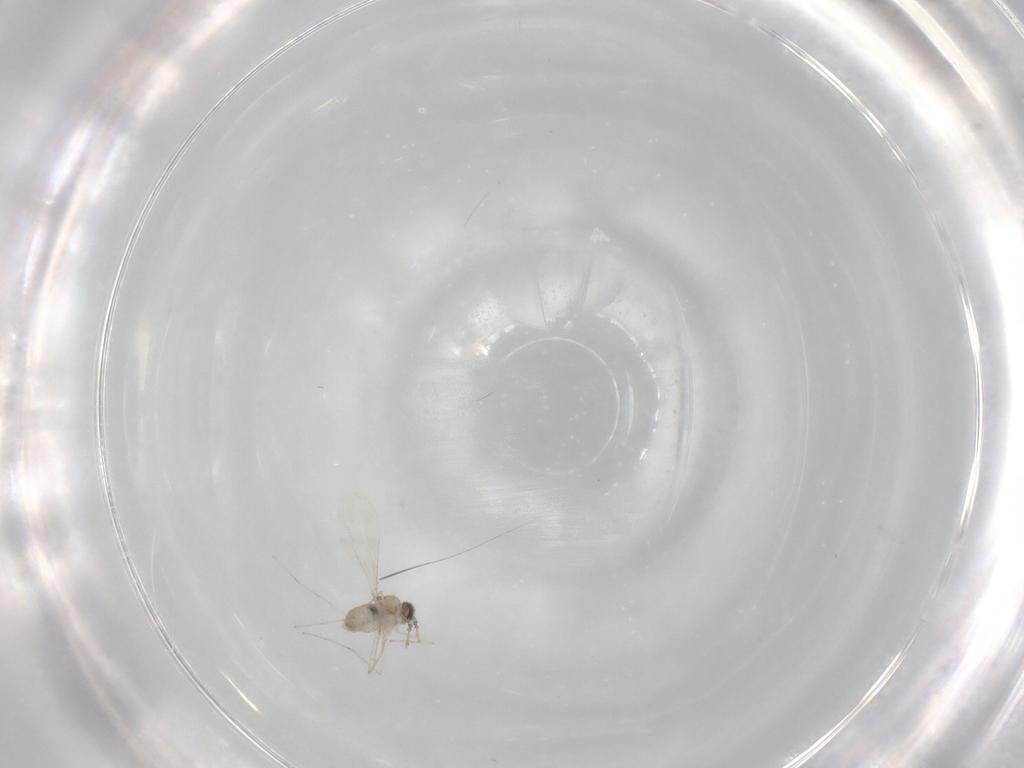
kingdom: Animalia
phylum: Arthropoda
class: Insecta
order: Diptera
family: Cecidomyiidae
